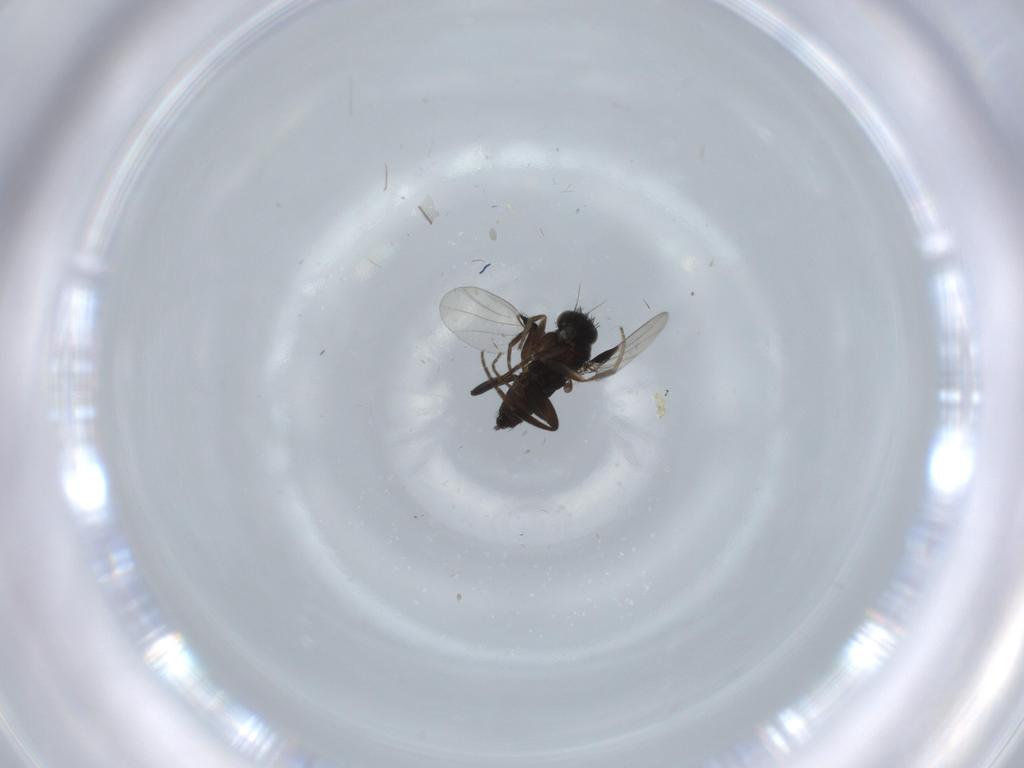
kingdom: Animalia
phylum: Arthropoda
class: Insecta
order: Diptera
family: Phoridae
